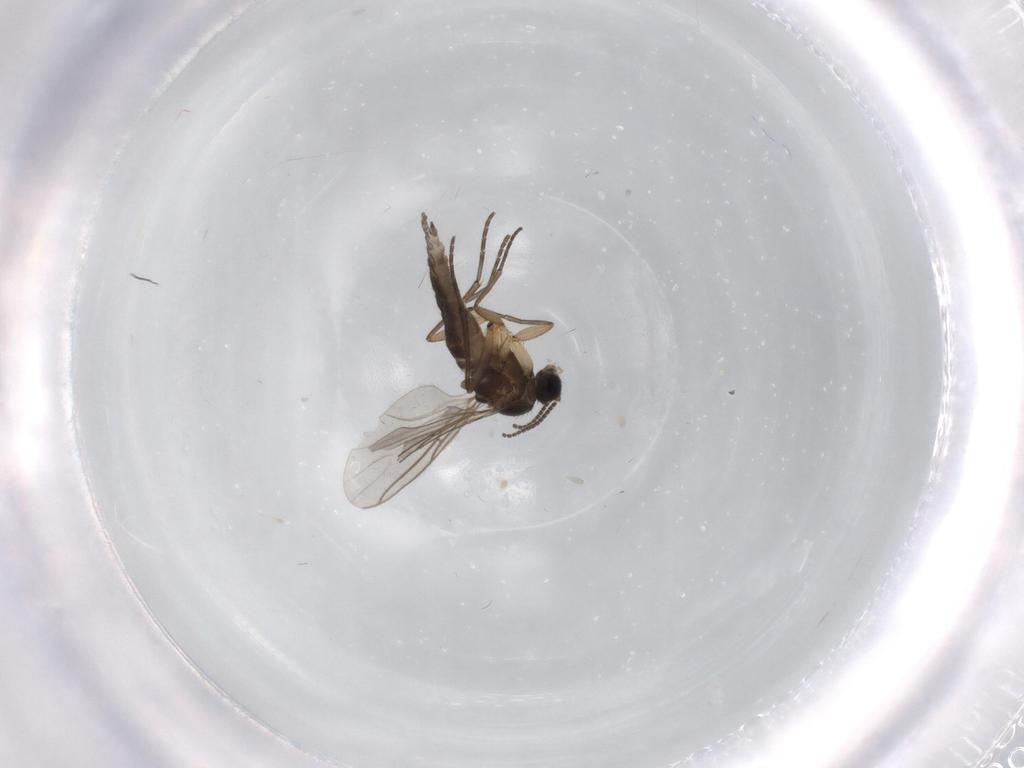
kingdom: Animalia
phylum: Arthropoda
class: Insecta
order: Diptera
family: Sciaridae
